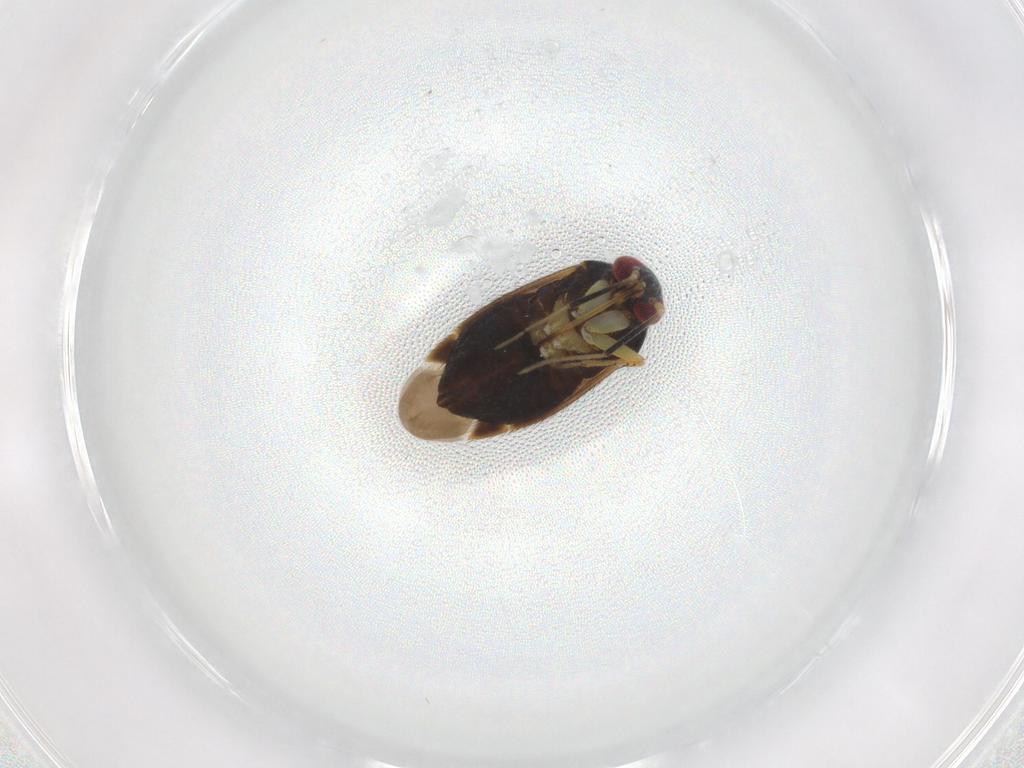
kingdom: Animalia
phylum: Arthropoda
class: Insecta
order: Hemiptera
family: Miridae
